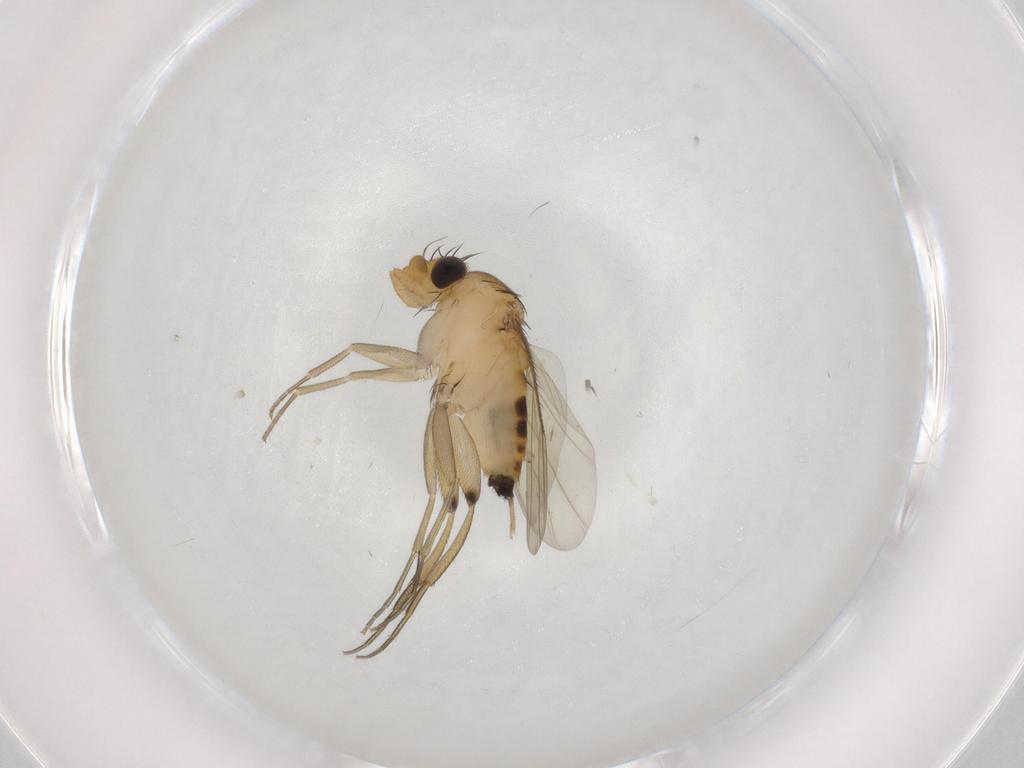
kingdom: Animalia
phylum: Arthropoda
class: Insecta
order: Diptera
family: Phoridae
